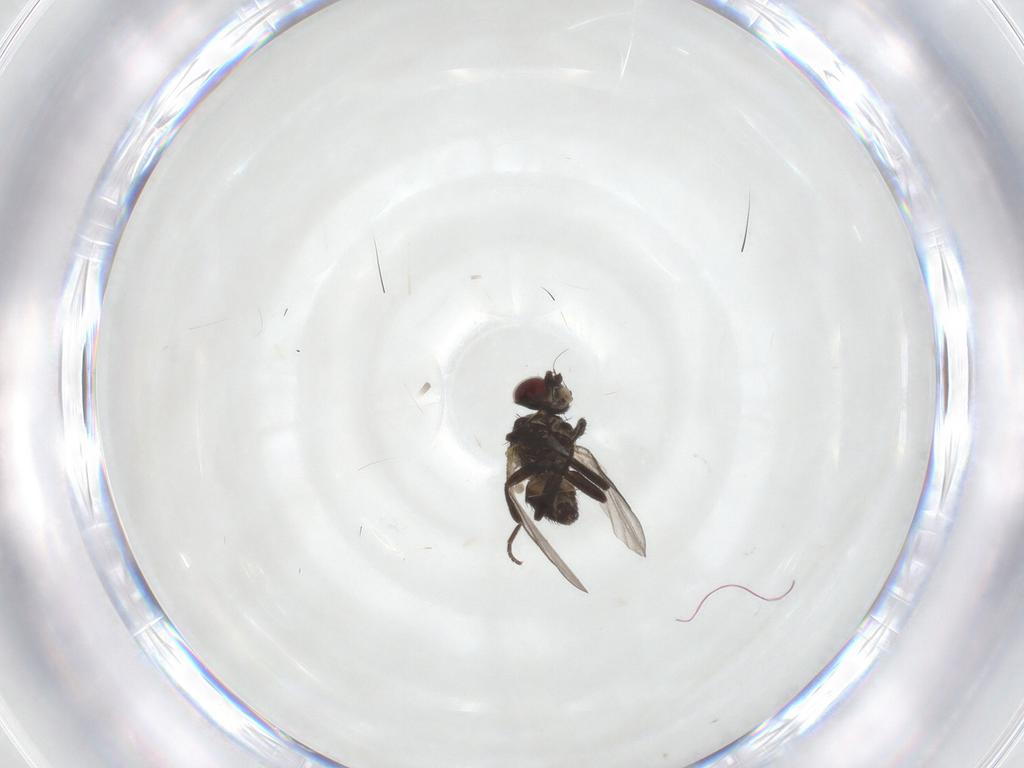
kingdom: Animalia
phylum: Arthropoda
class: Insecta
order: Diptera
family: Agromyzidae
